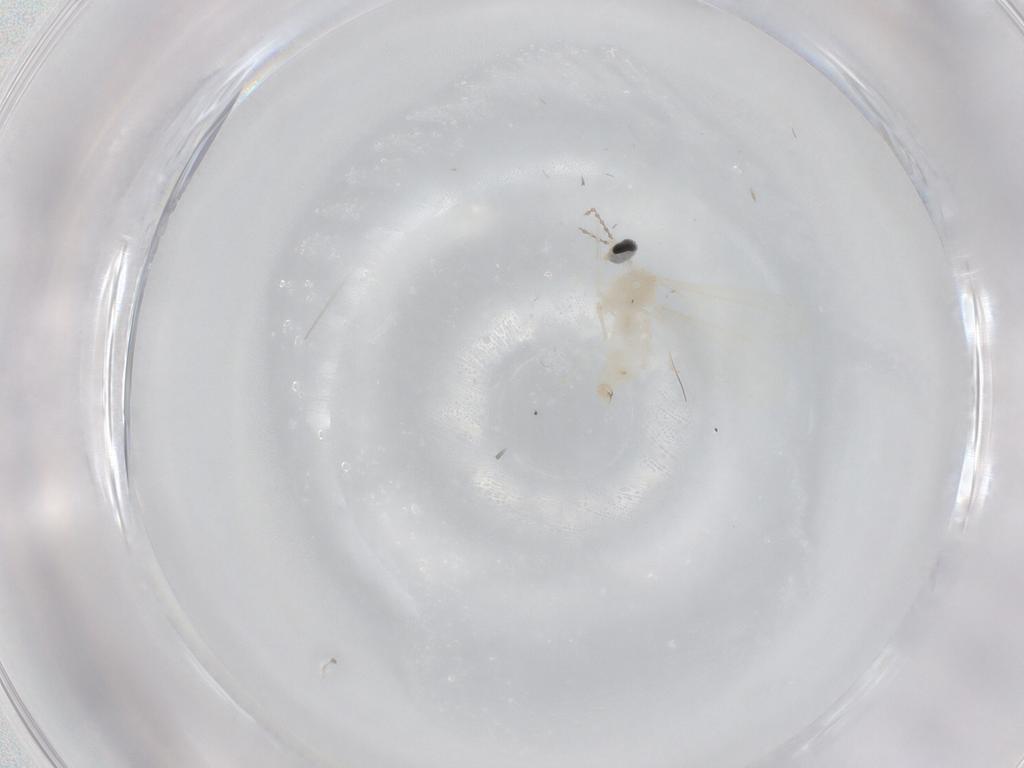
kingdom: Animalia
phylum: Arthropoda
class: Insecta
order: Diptera
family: Cecidomyiidae
